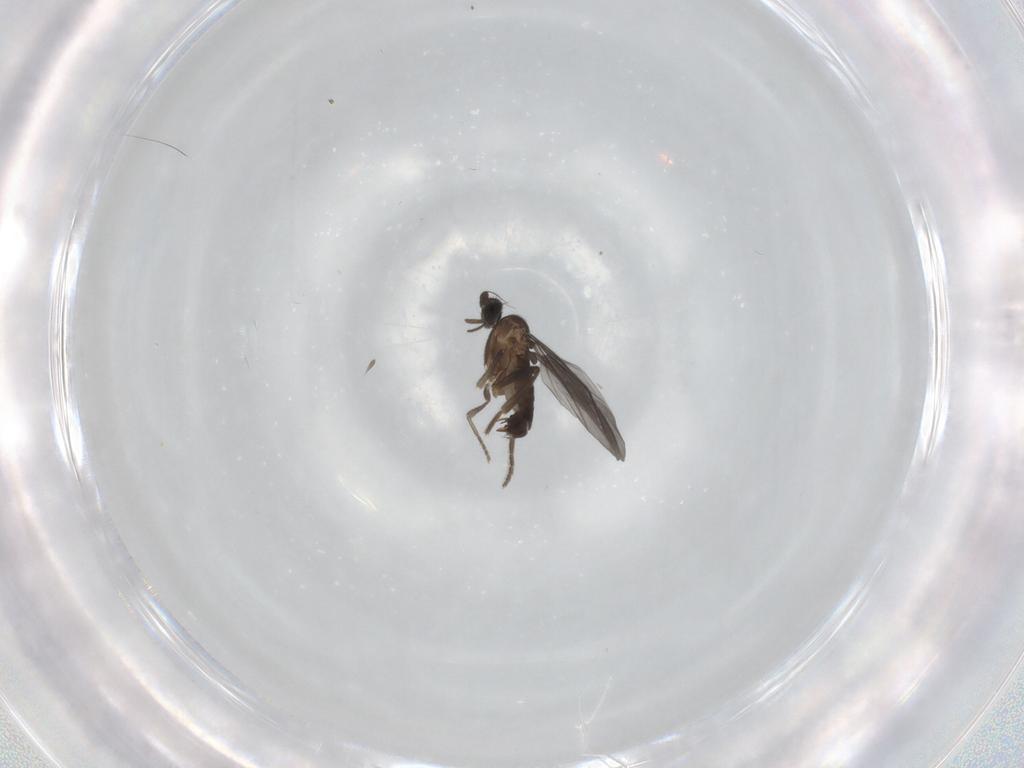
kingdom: Animalia
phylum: Arthropoda
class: Insecta
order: Diptera
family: Phoridae
